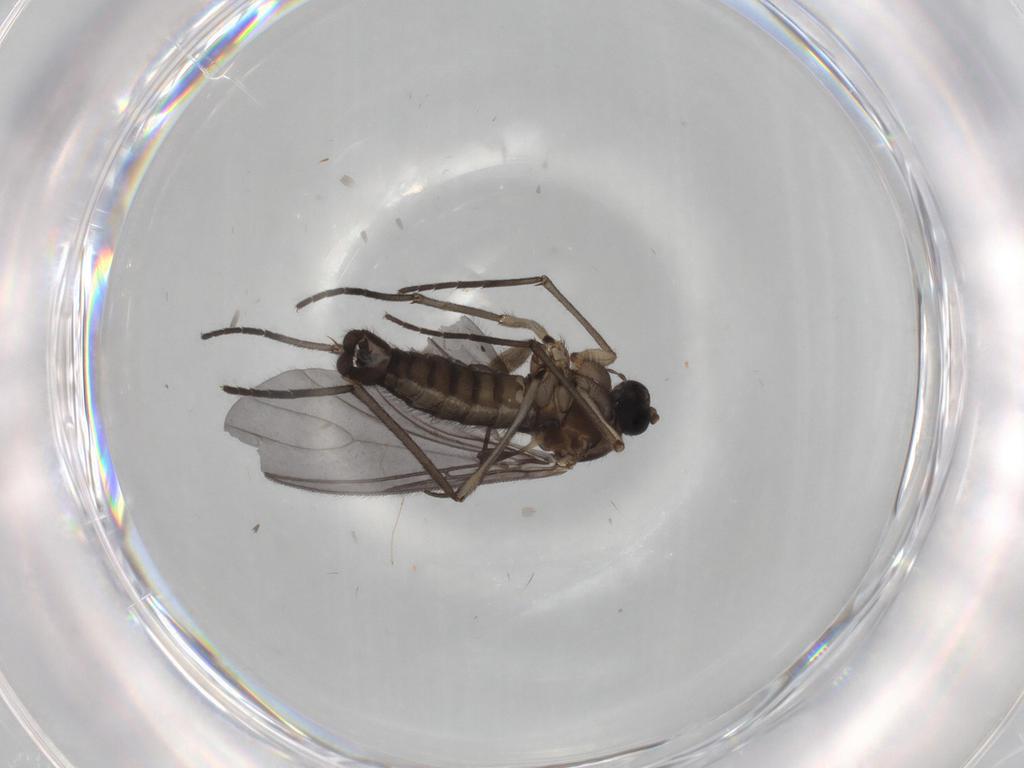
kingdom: Animalia
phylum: Arthropoda
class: Insecta
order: Diptera
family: Sciaridae
